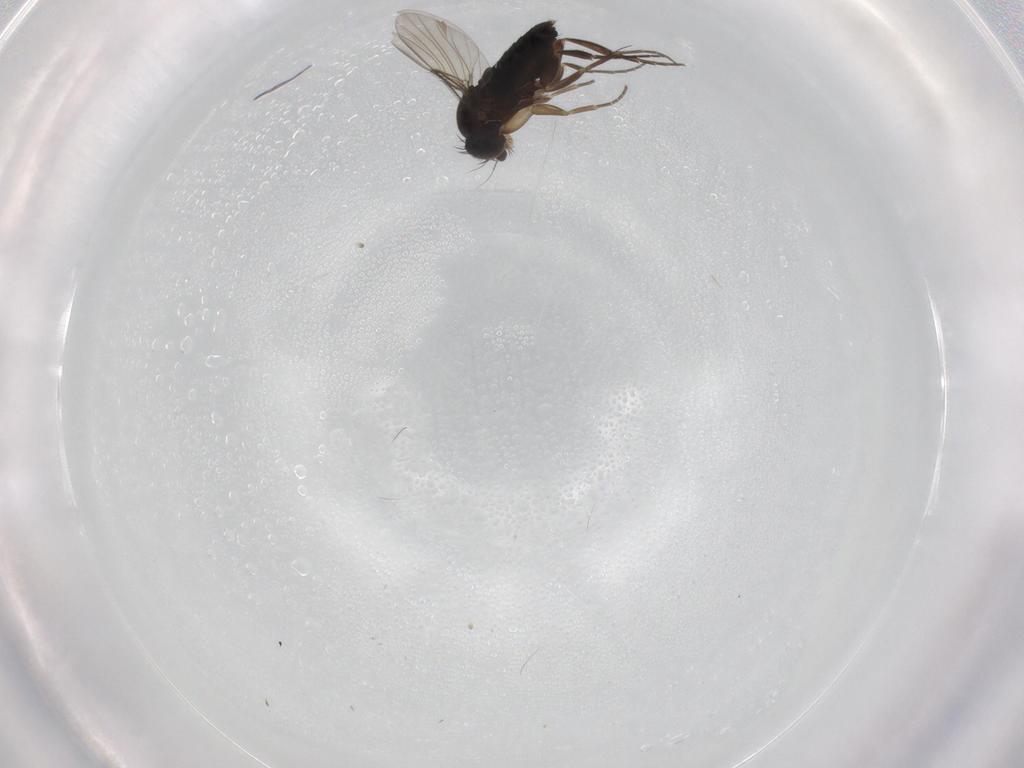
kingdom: Animalia
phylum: Arthropoda
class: Insecta
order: Diptera
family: Phoridae
